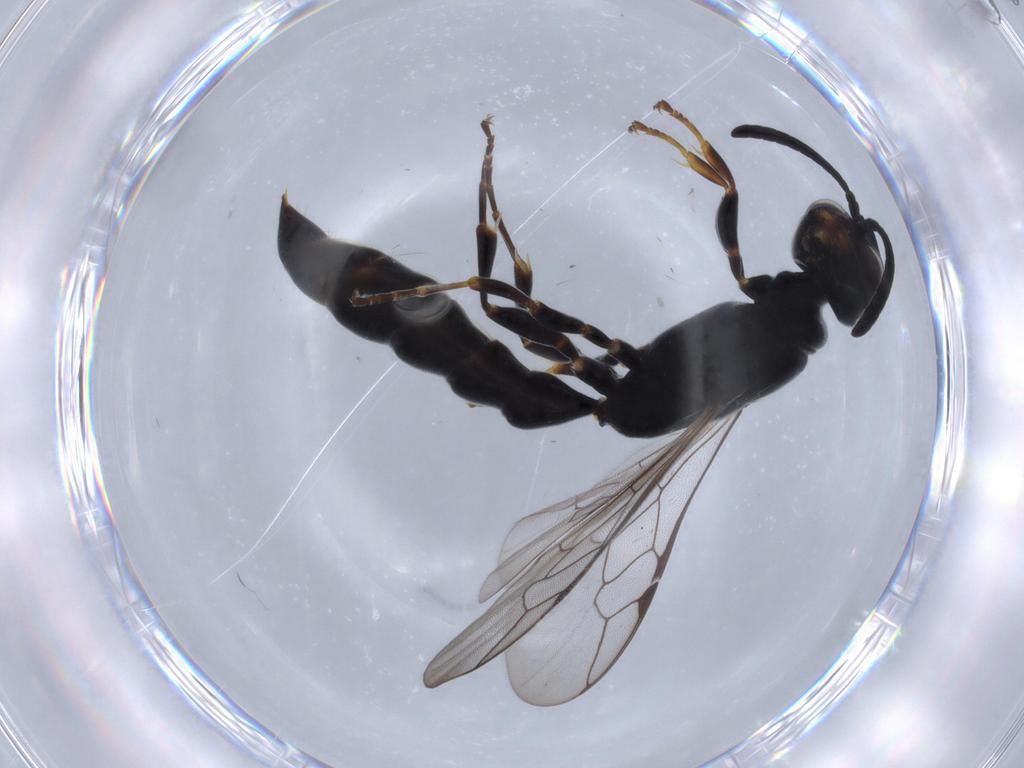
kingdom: Animalia
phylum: Arthropoda
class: Insecta
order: Hymenoptera
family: Crabronidae
